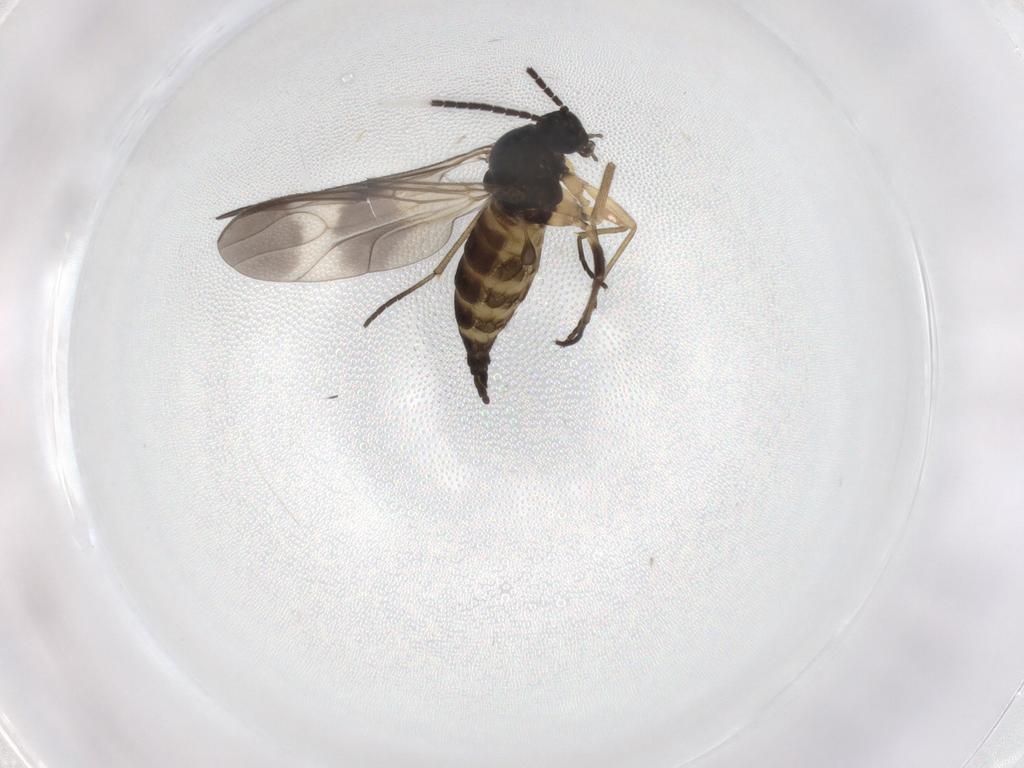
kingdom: Animalia
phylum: Arthropoda
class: Insecta
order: Diptera
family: Sciaridae
